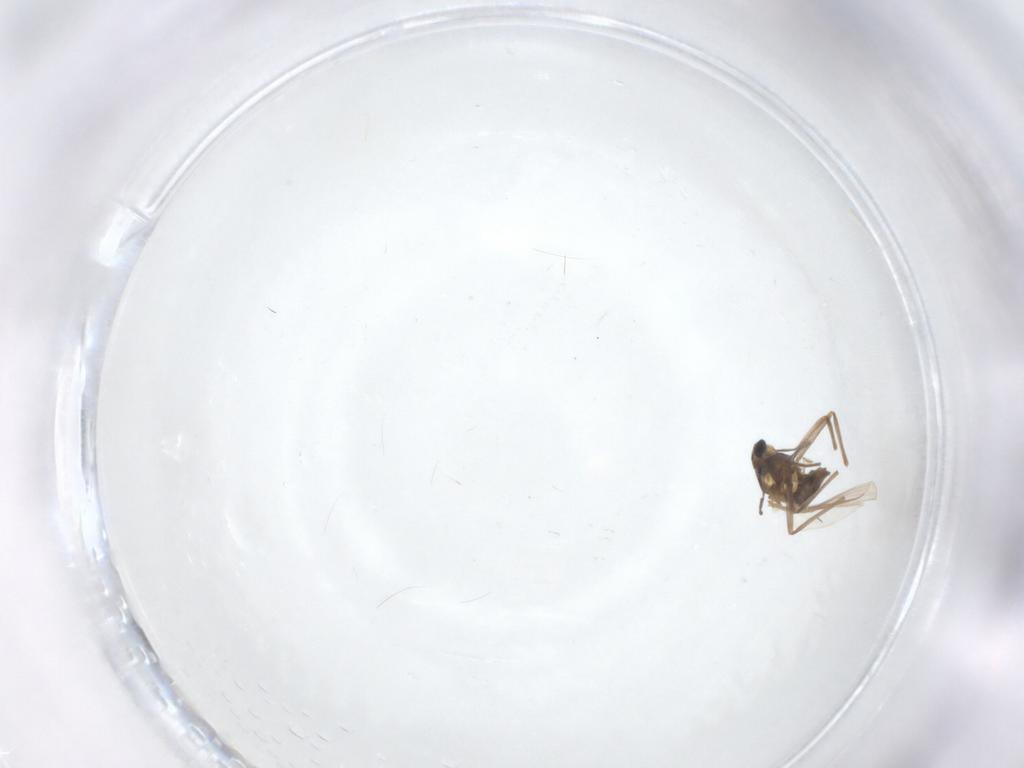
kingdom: Animalia
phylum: Arthropoda
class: Insecta
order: Diptera
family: Chironomidae
